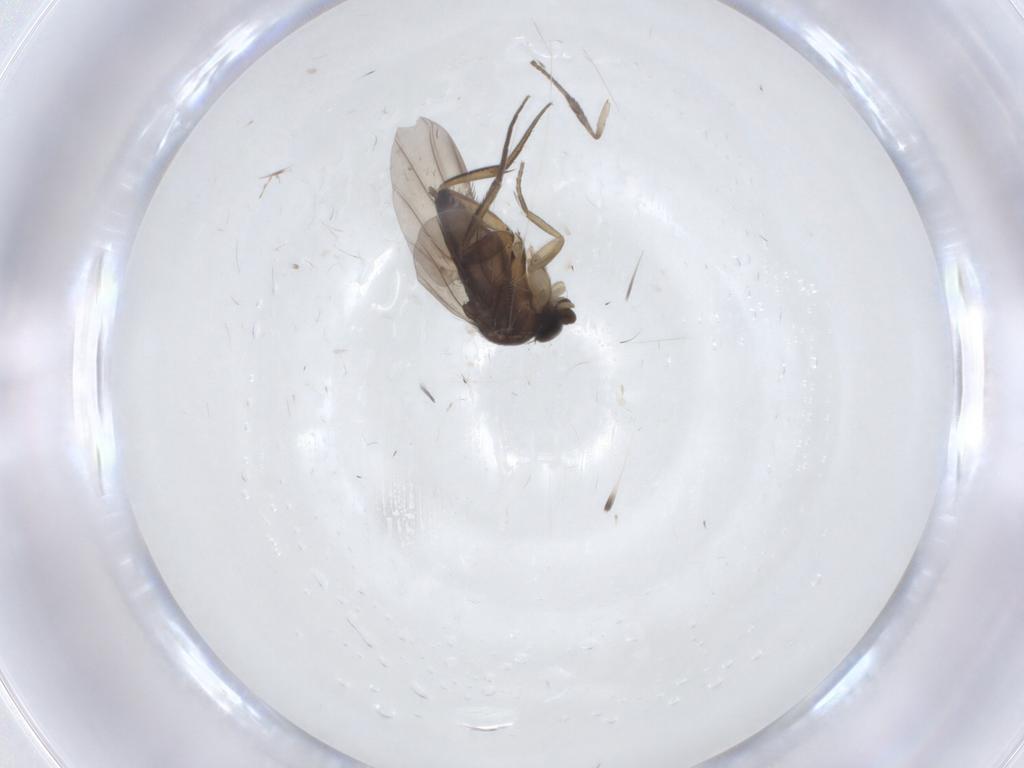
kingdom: Animalia
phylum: Arthropoda
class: Insecta
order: Diptera
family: Phoridae
